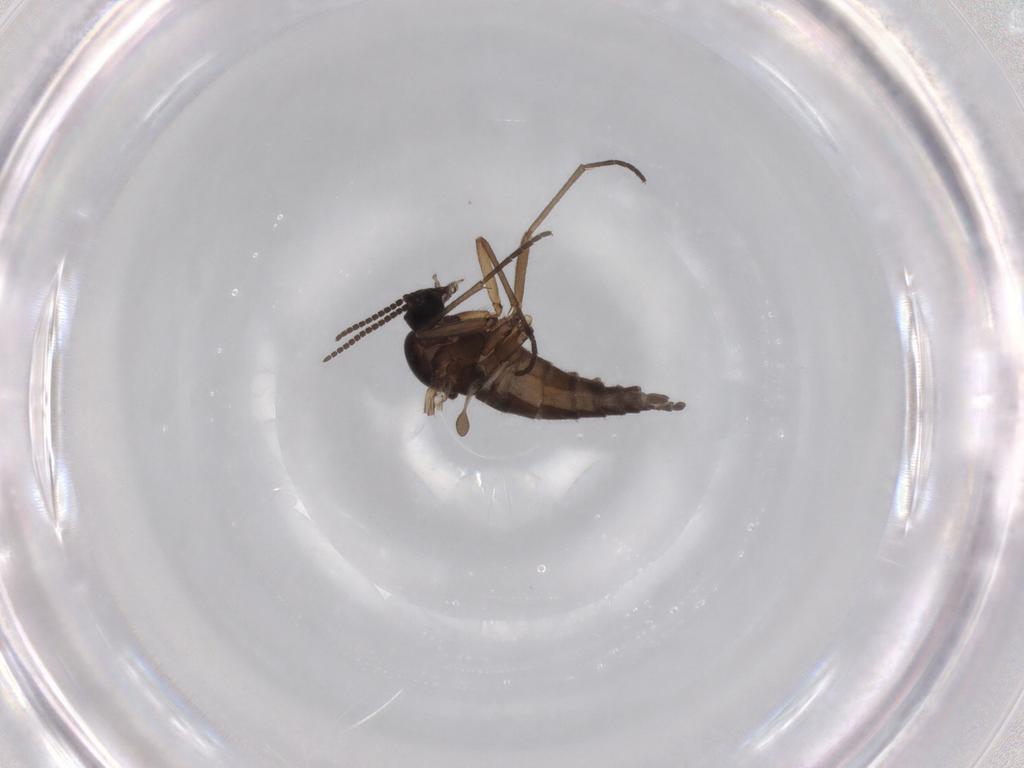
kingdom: Animalia
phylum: Arthropoda
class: Insecta
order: Diptera
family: Sciaridae
